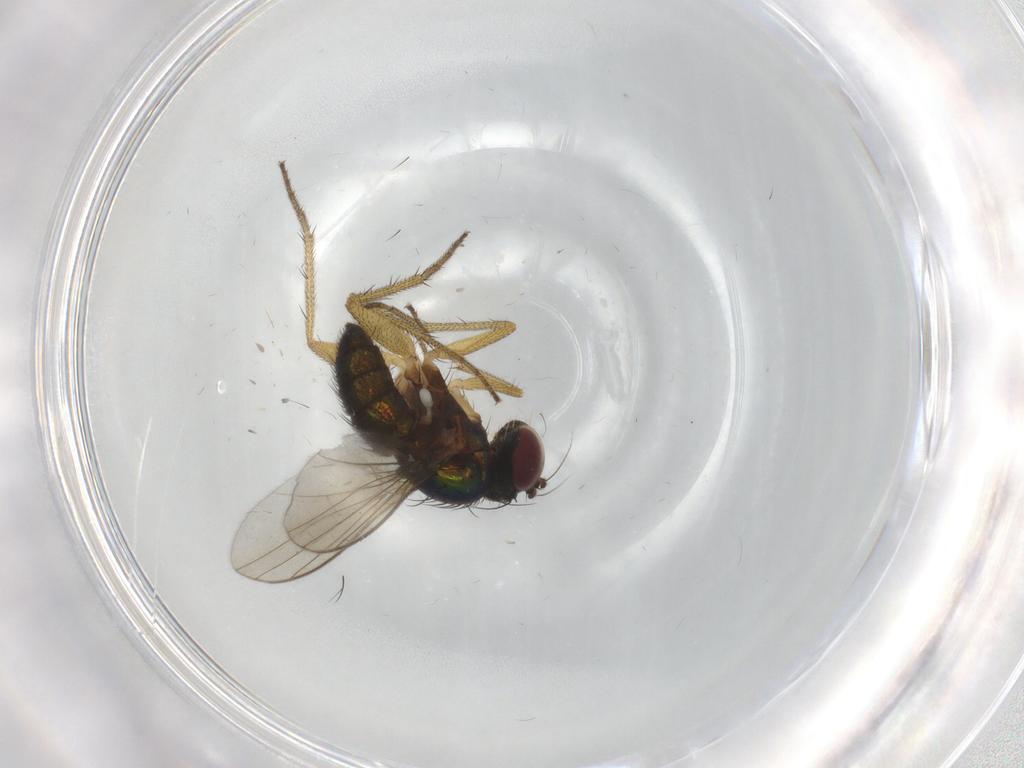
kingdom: Animalia
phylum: Arthropoda
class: Insecta
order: Diptera
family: Dolichopodidae
